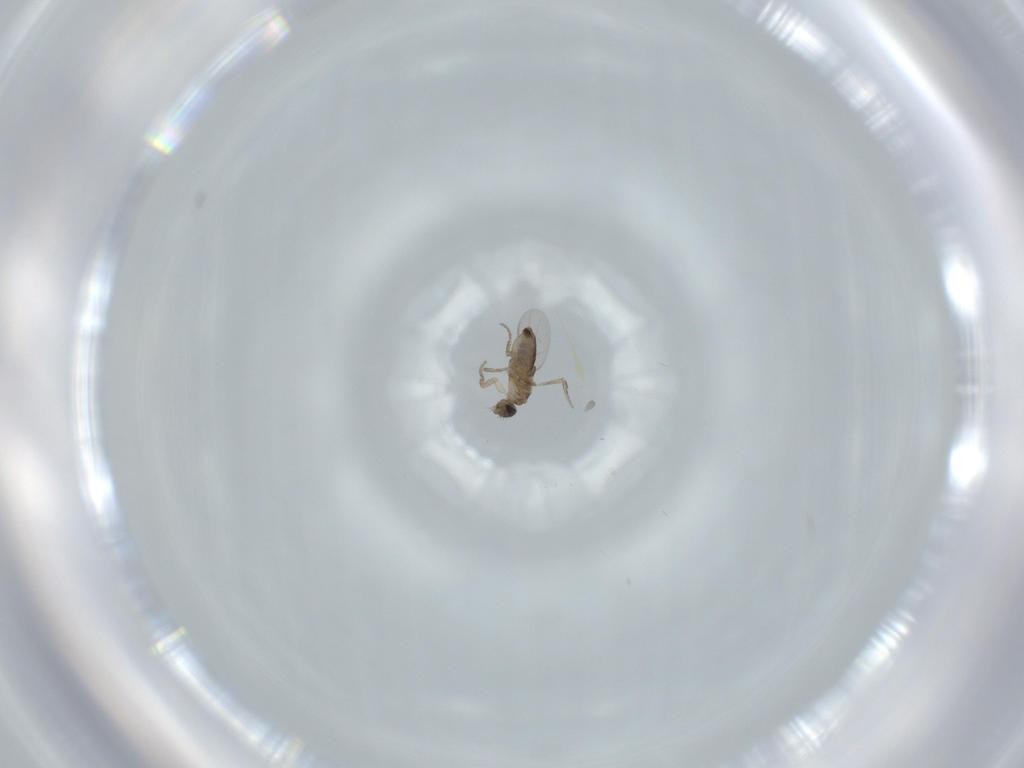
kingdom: Animalia
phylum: Arthropoda
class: Insecta
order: Diptera
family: Phoridae
